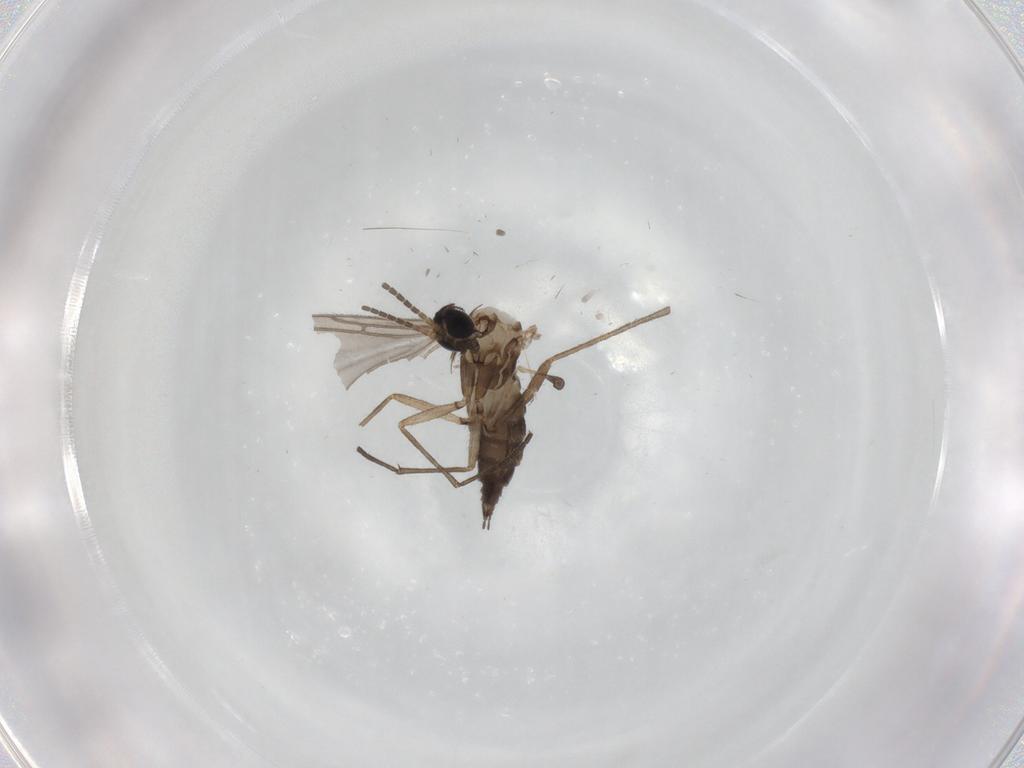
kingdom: Animalia
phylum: Arthropoda
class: Insecta
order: Diptera
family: Sciaridae
